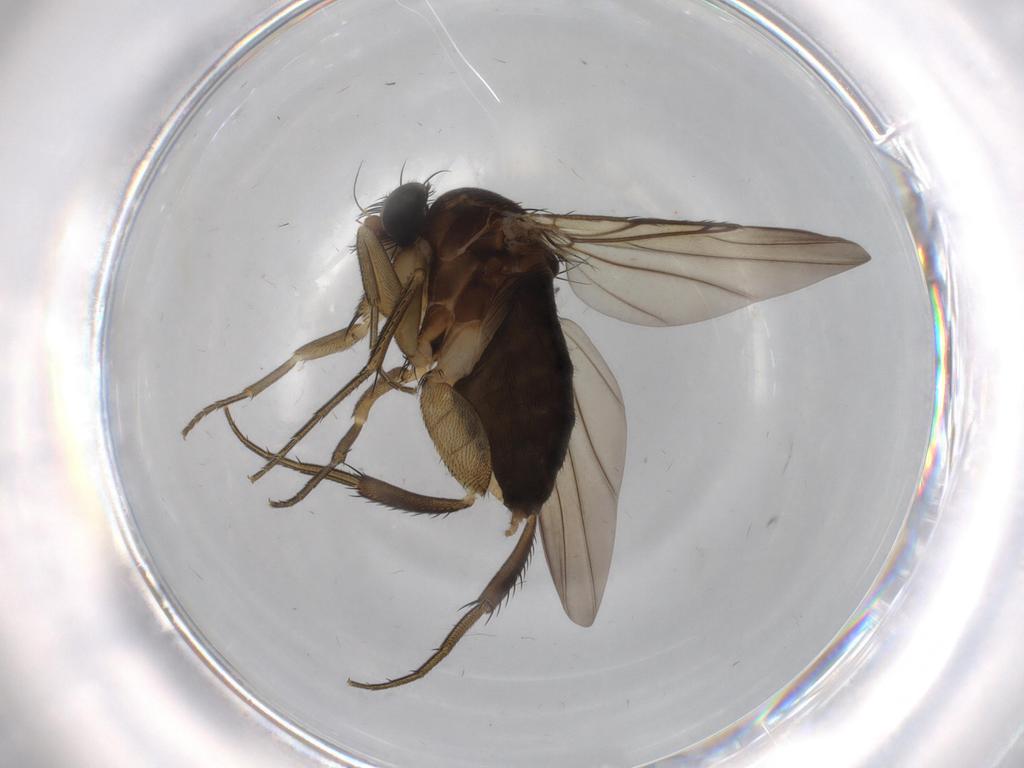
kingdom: Animalia
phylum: Arthropoda
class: Insecta
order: Diptera
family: Phoridae
